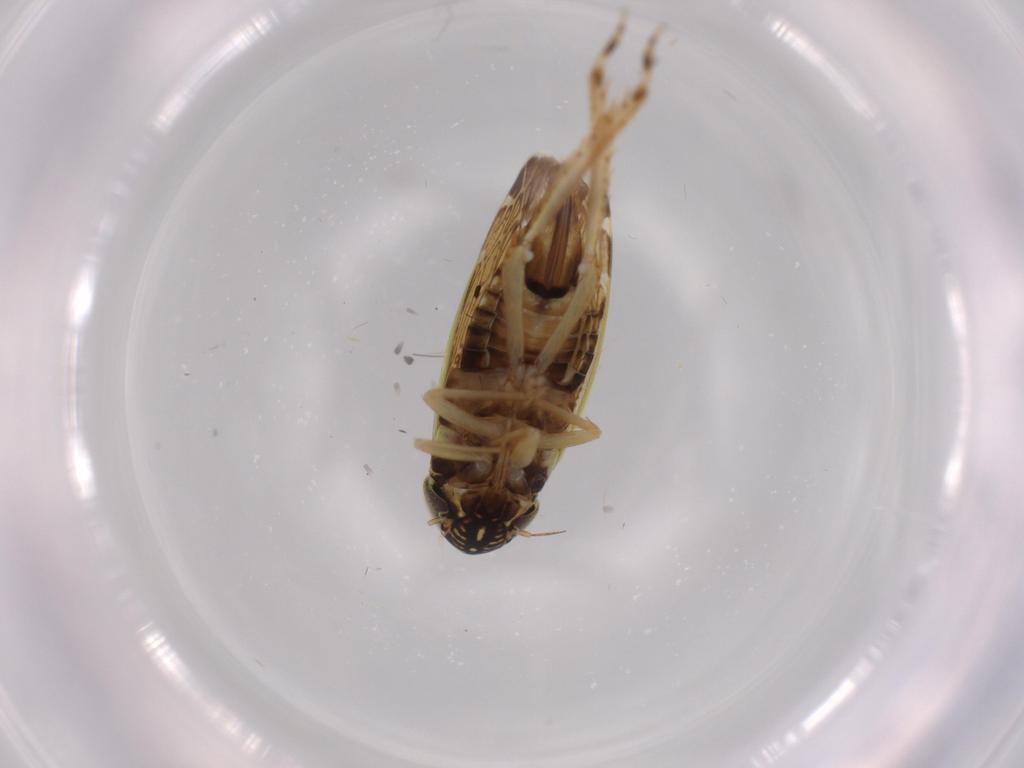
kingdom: Animalia
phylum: Arthropoda
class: Insecta
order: Hemiptera
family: Cicadellidae
